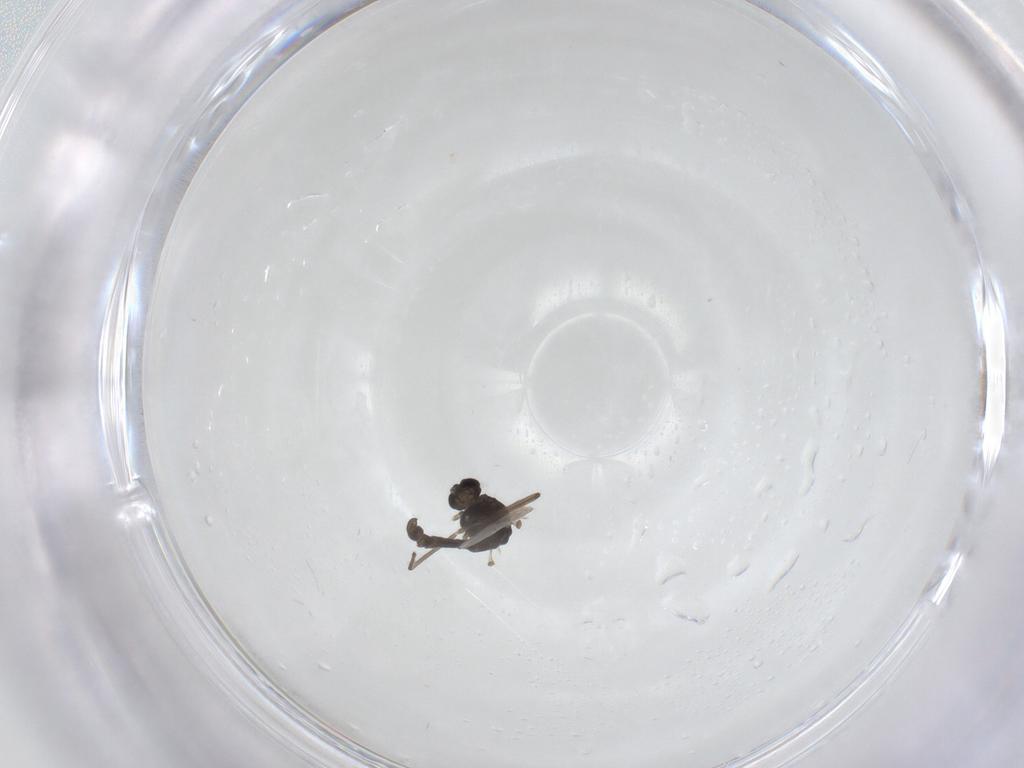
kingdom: Animalia
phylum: Arthropoda
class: Insecta
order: Diptera
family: Chironomidae
